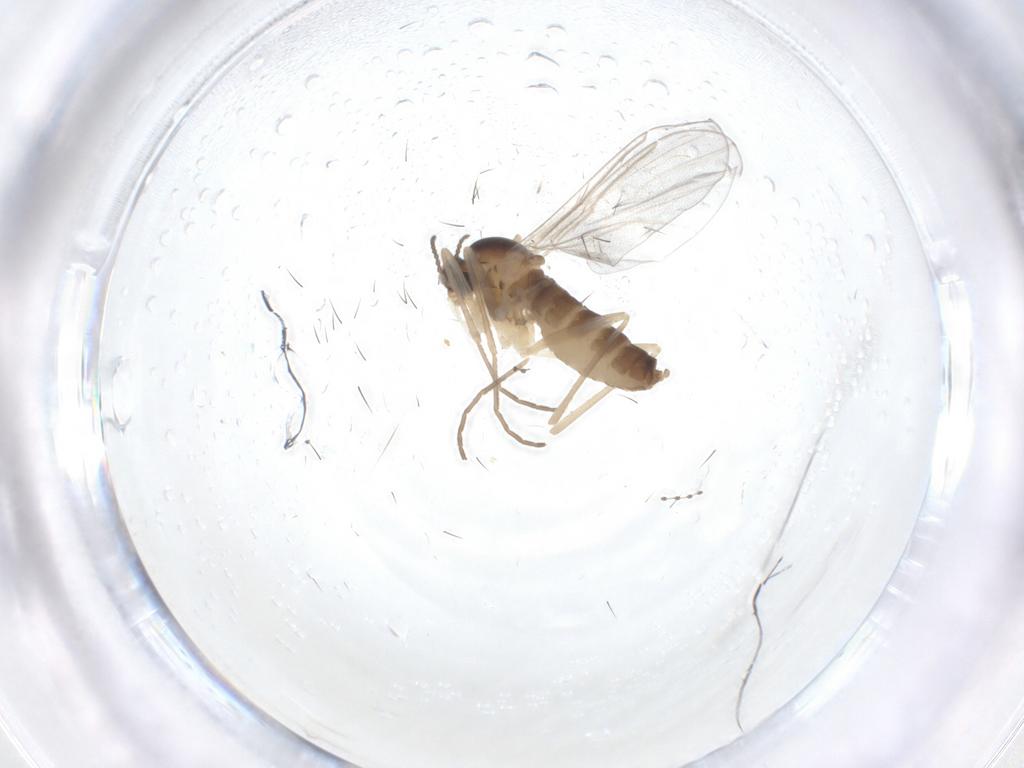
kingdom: Animalia
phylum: Arthropoda
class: Insecta
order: Diptera
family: Cecidomyiidae
